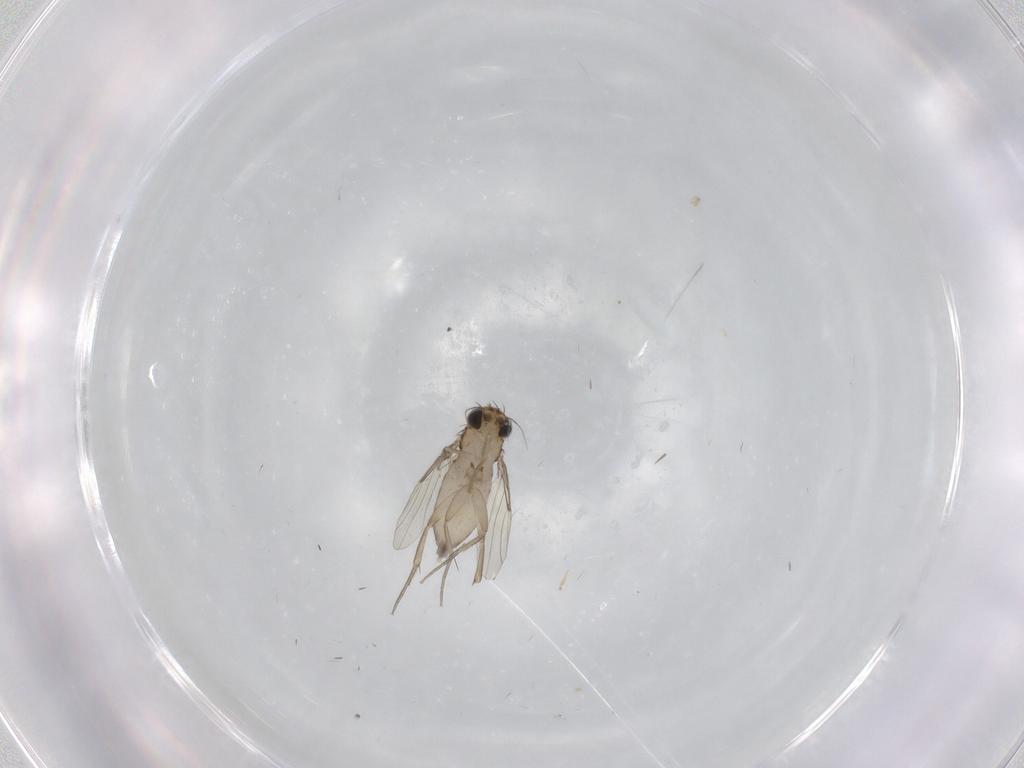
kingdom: Animalia
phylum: Arthropoda
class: Insecta
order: Diptera
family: Phoridae
